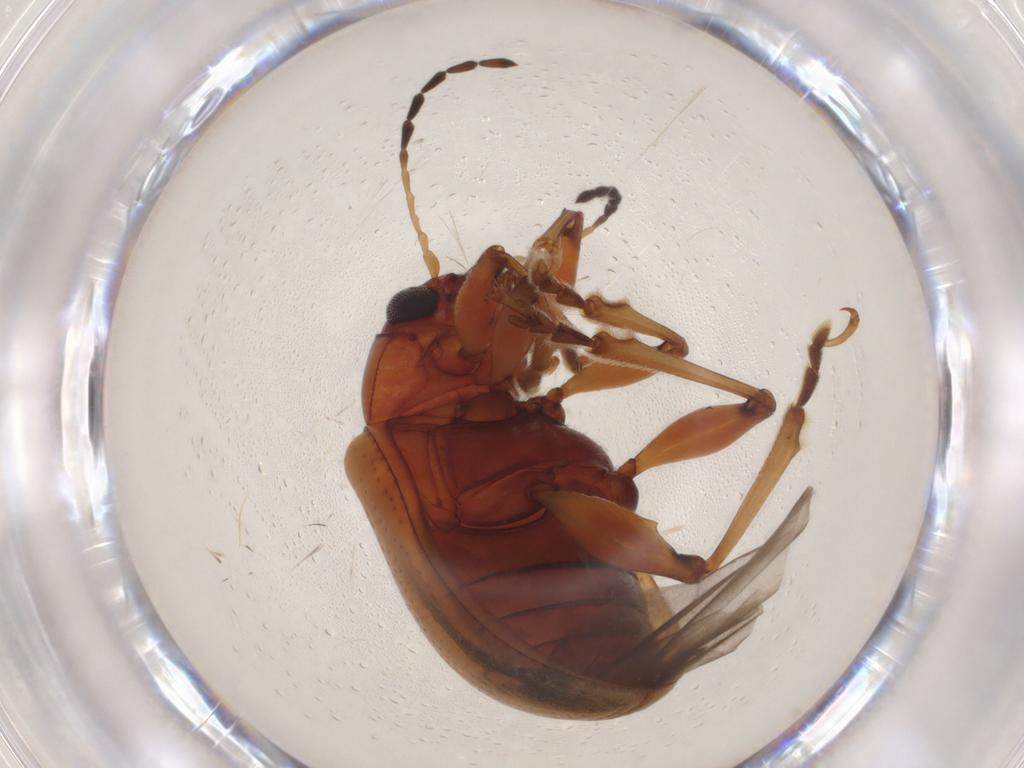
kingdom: Animalia
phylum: Arthropoda
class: Insecta
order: Coleoptera
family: Chrysomelidae
